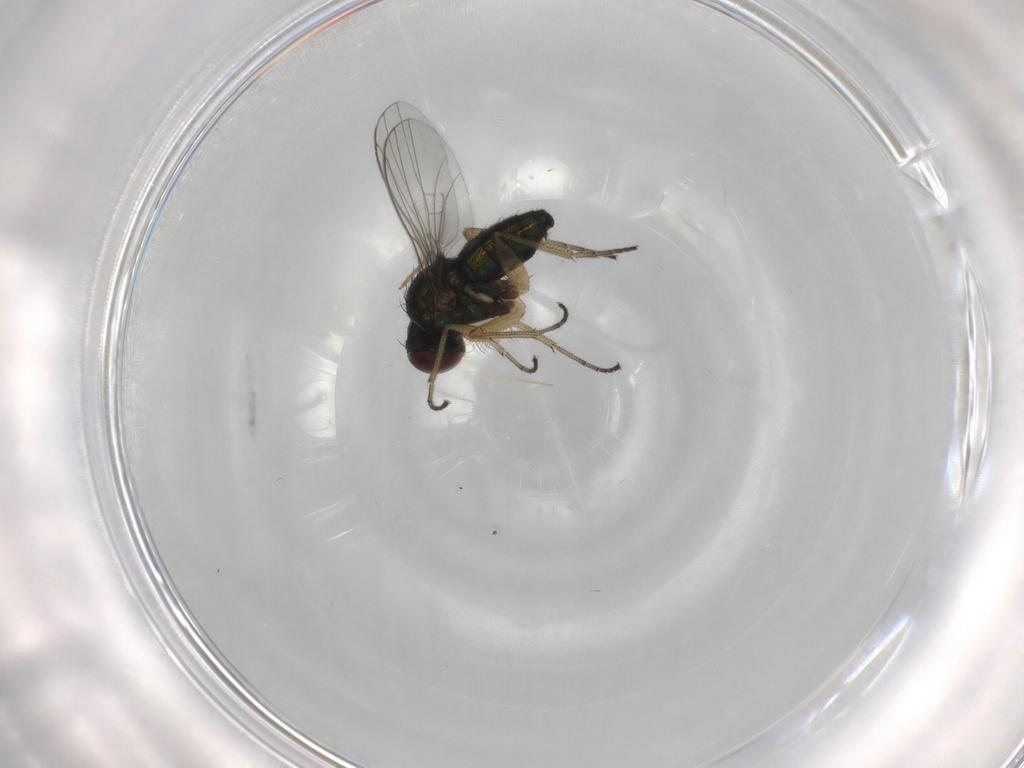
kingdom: Animalia
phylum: Arthropoda
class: Insecta
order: Diptera
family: Dolichopodidae
